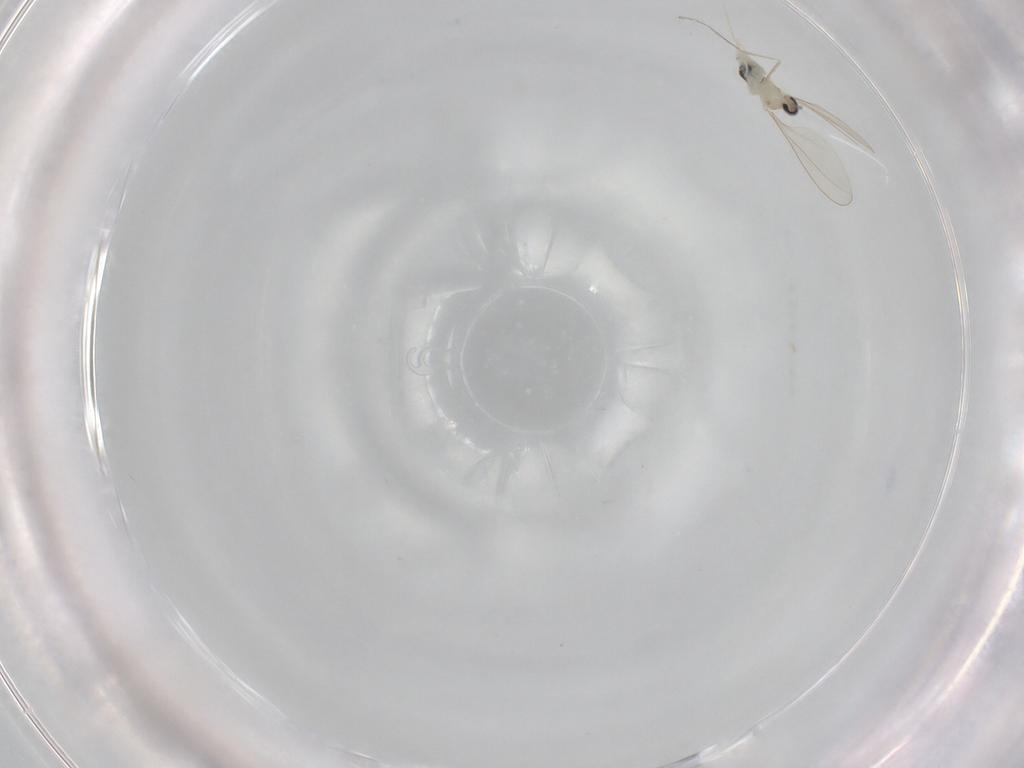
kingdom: Animalia
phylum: Arthropoda
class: Insecta
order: Diptera
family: Cecidomyiidae
